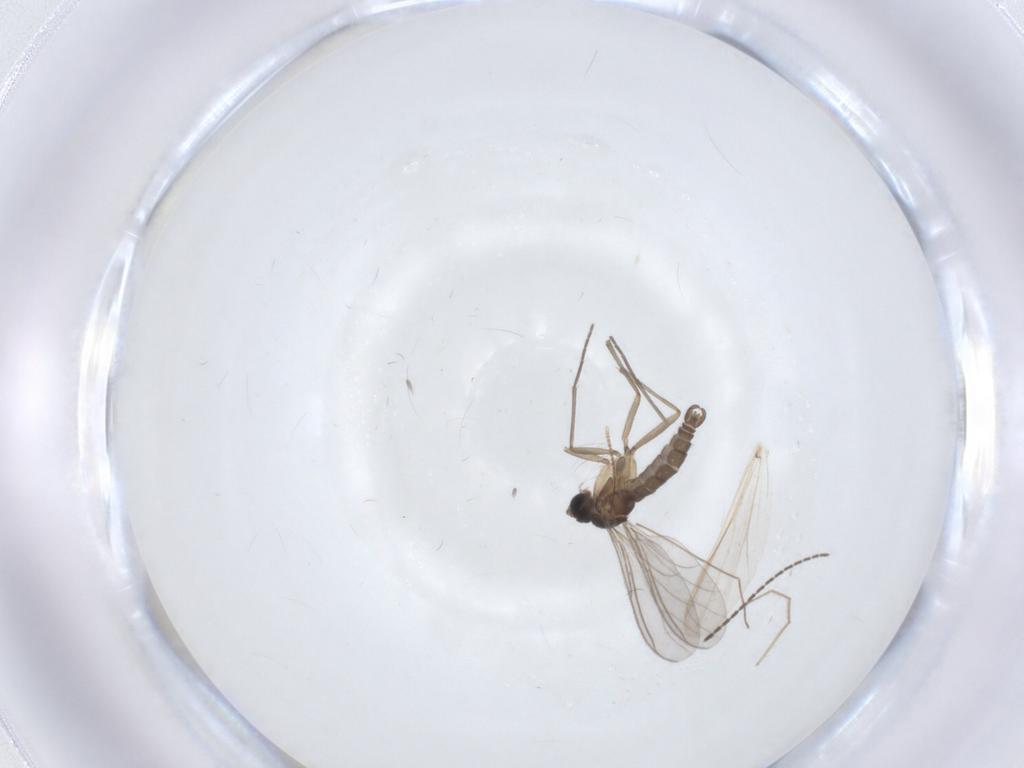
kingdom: Animalia
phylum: Arthropoda
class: Insecta
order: Diptera
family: Sciaridae
